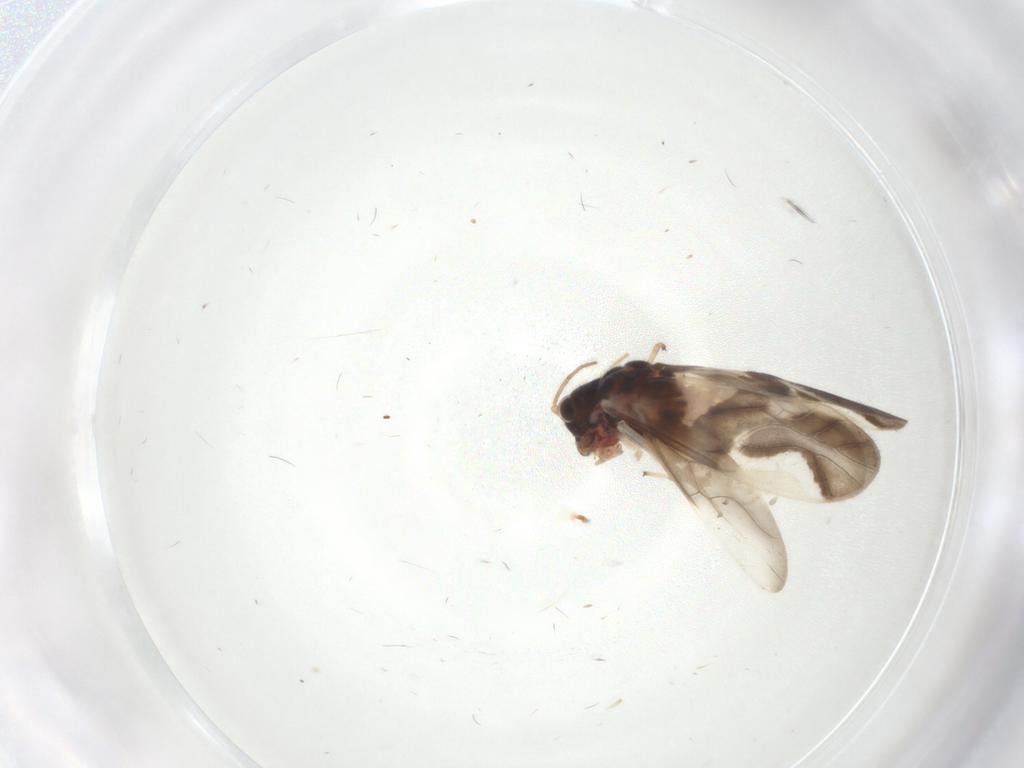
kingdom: Animalia
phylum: Arthropoda
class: Insecta
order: Psocodea
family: Caeciliusidae
